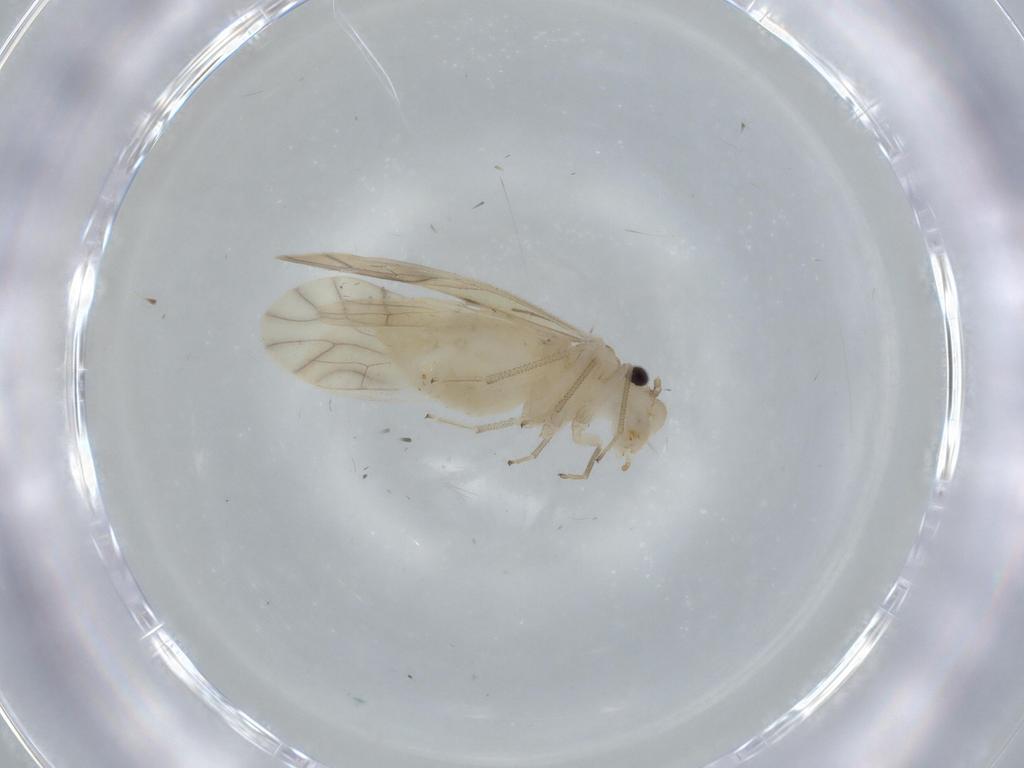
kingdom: Animalia
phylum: Arthropoda
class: Insecta
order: Psocodea
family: Caeciliusidae
